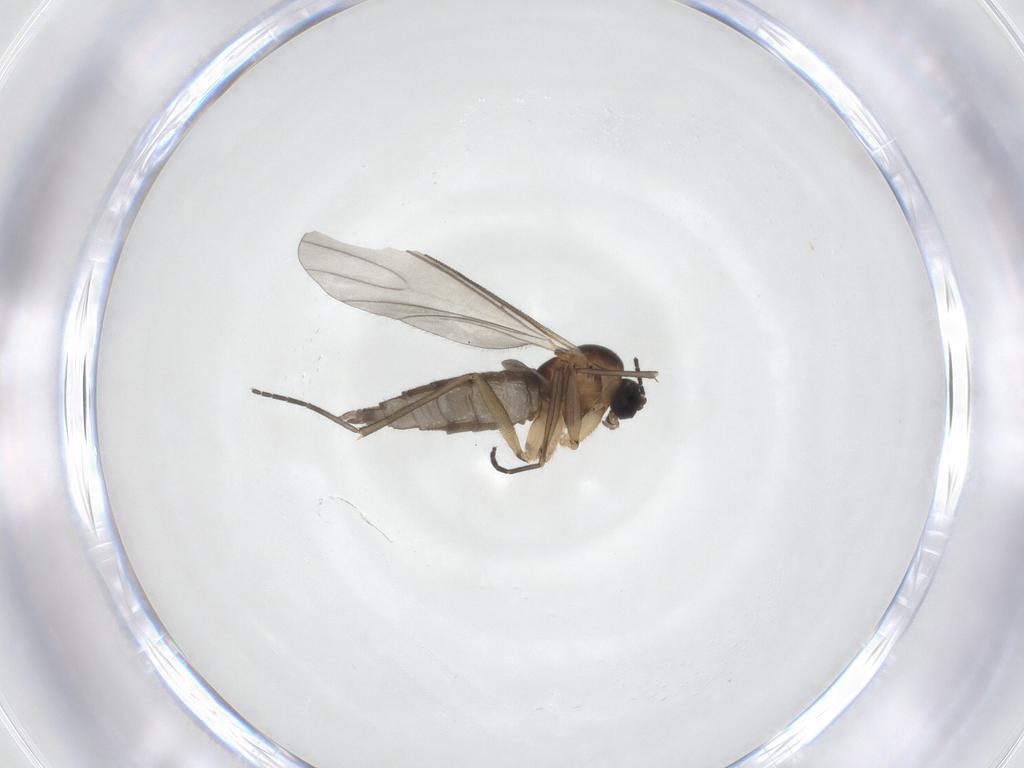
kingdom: Animalia
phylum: Arthropoda
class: Insecta
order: Diptera
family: Sciaridae
